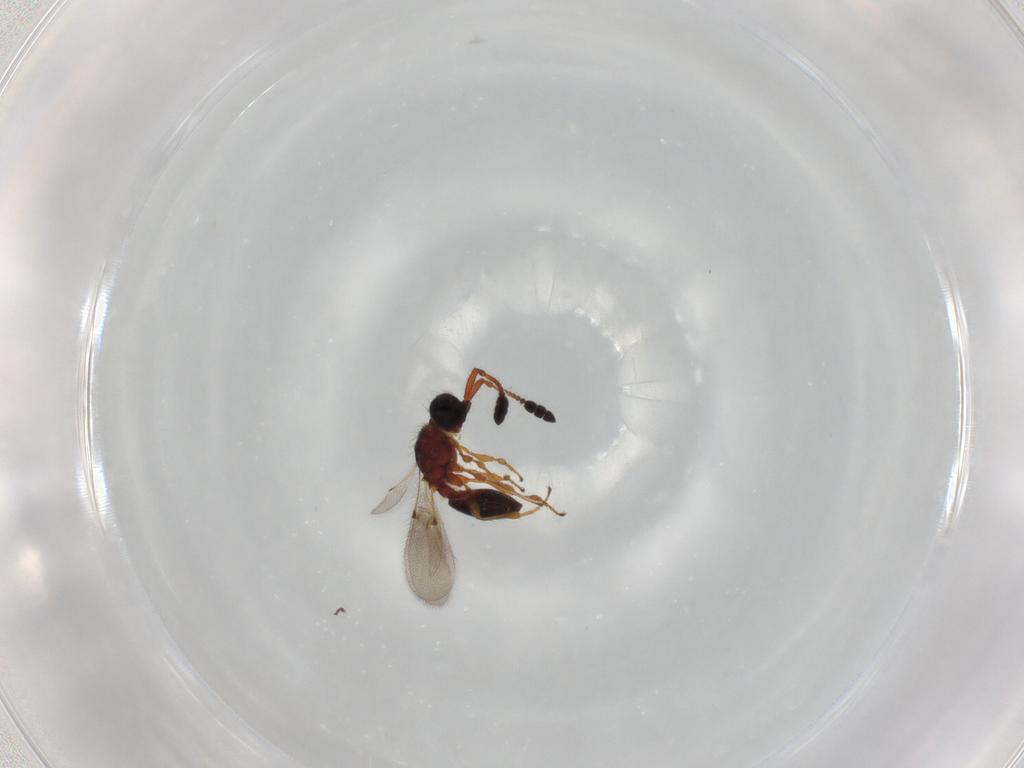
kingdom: Animalia
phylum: Arthropoda
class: Insecta
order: Hymenoptera
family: Diapriidae
